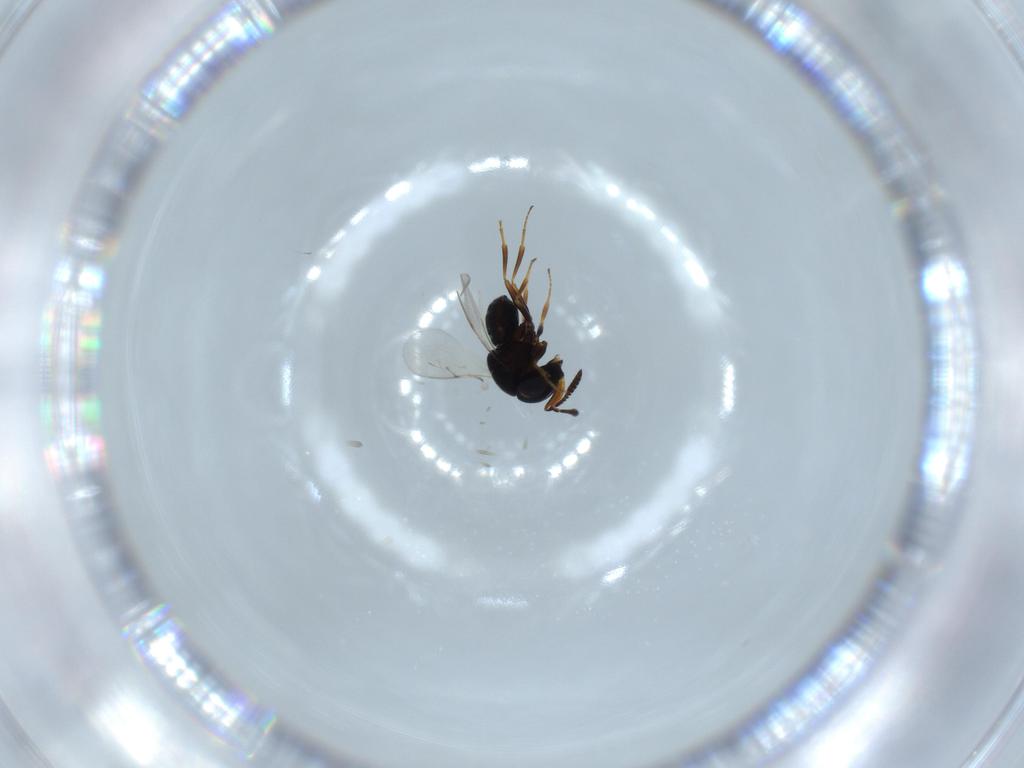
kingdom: Animalia
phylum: Arthropoda
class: Insecta
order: Hymenoptera
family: Scelionidae
